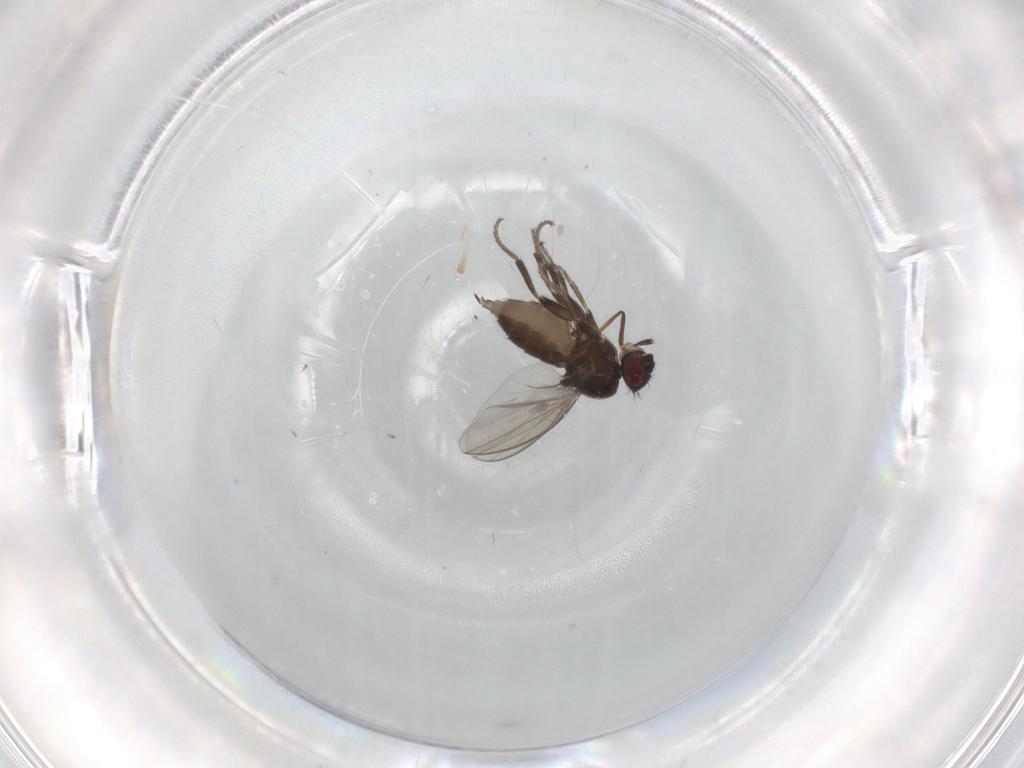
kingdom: Animalia
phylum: Arthropoda
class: Insecta
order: Diptera
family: Milichiidae
